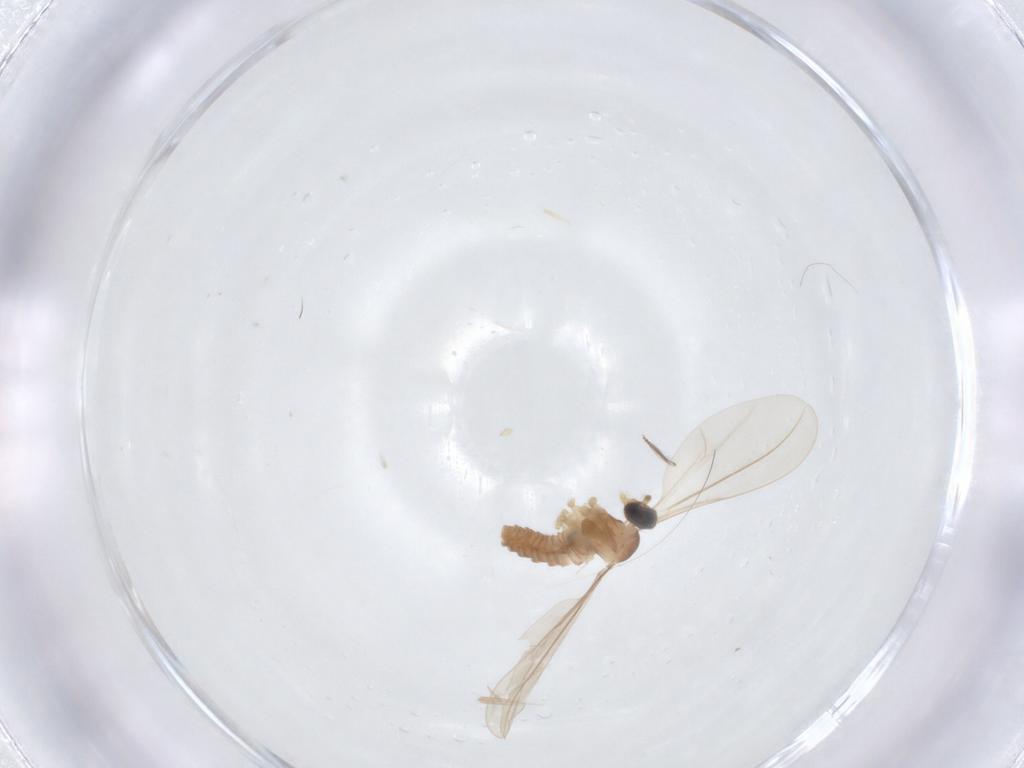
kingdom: Animalia
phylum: Arthropoda
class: Insecta
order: Diptera
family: Cecidomyiidae
